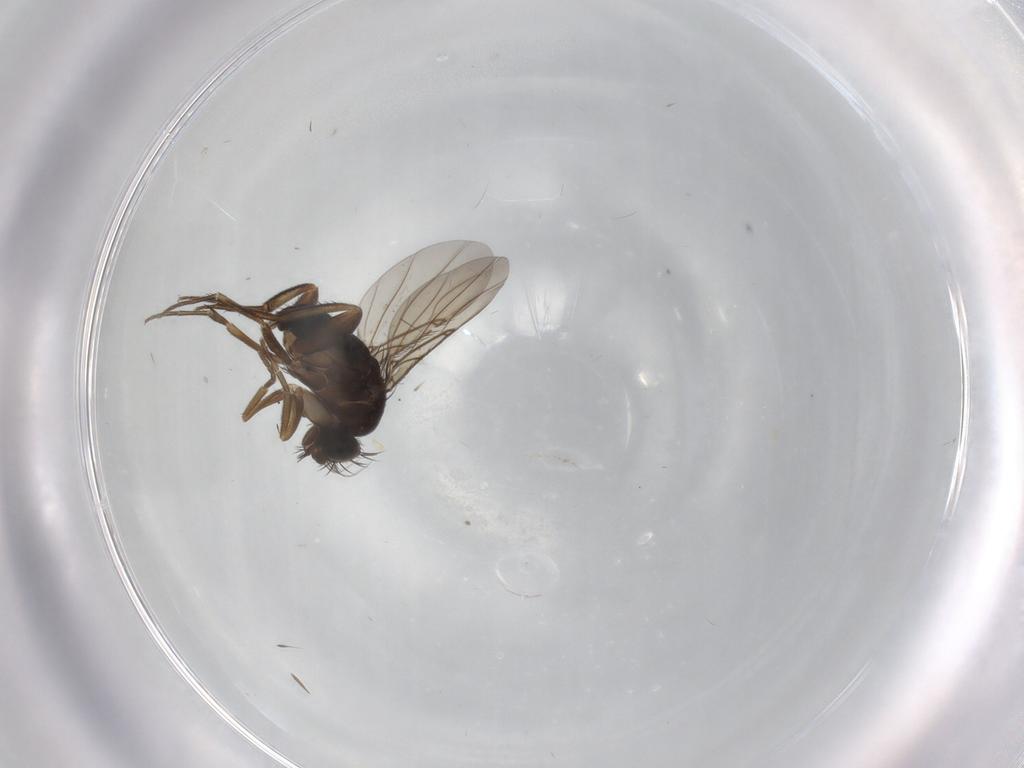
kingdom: Animalia
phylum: Arthropoda
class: Insecta
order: Diptera
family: Phoridae
